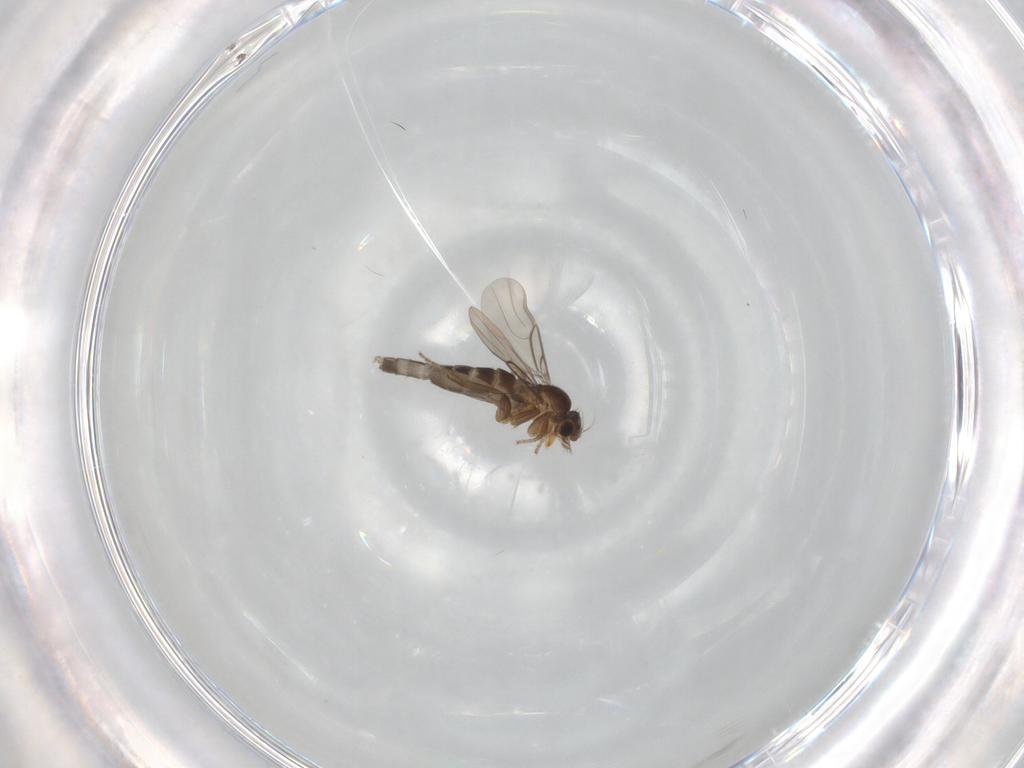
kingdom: Animalia
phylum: Arthropoda
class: Insecta
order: Diptera
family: Phoridae
